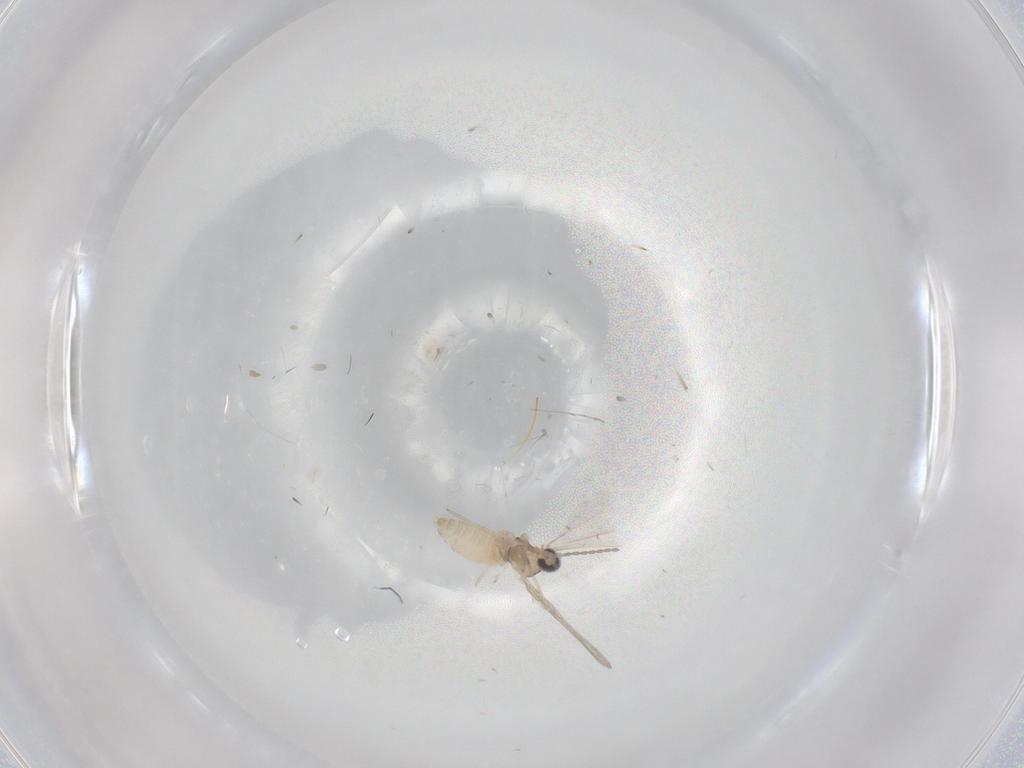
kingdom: Animalia
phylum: Arthropoda
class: Insecta
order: Diptera
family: Cecidomyiidae
